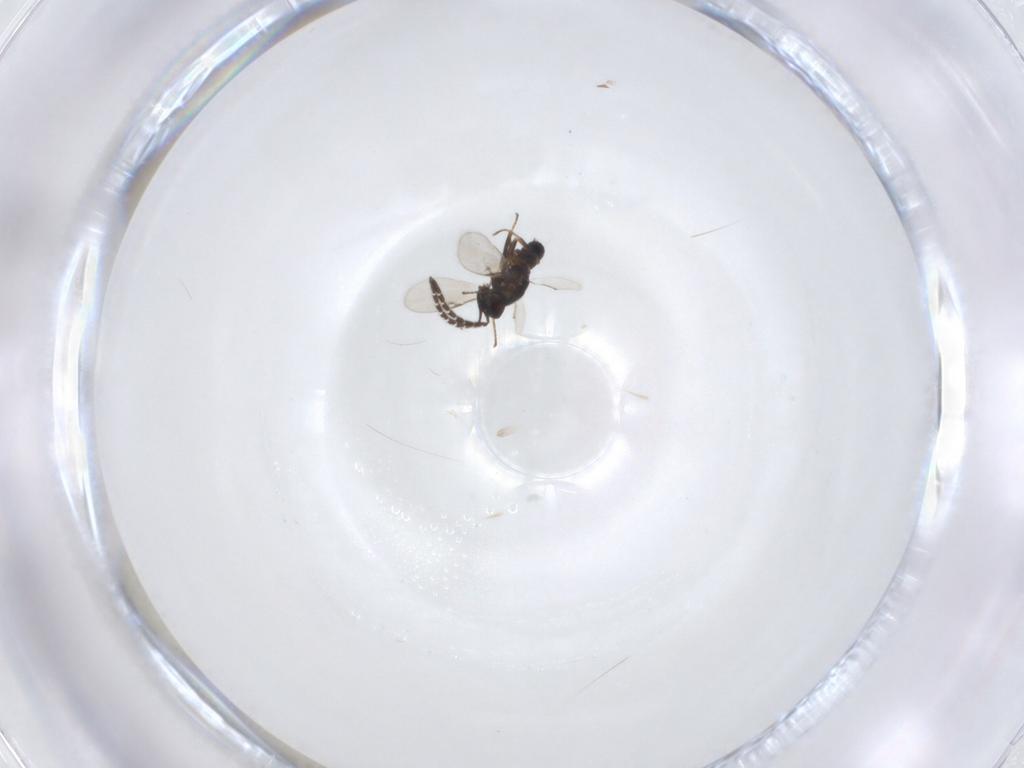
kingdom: Animalia
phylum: Arthropoda
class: Insecta
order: Hymenoptera
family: Encyrtidae
